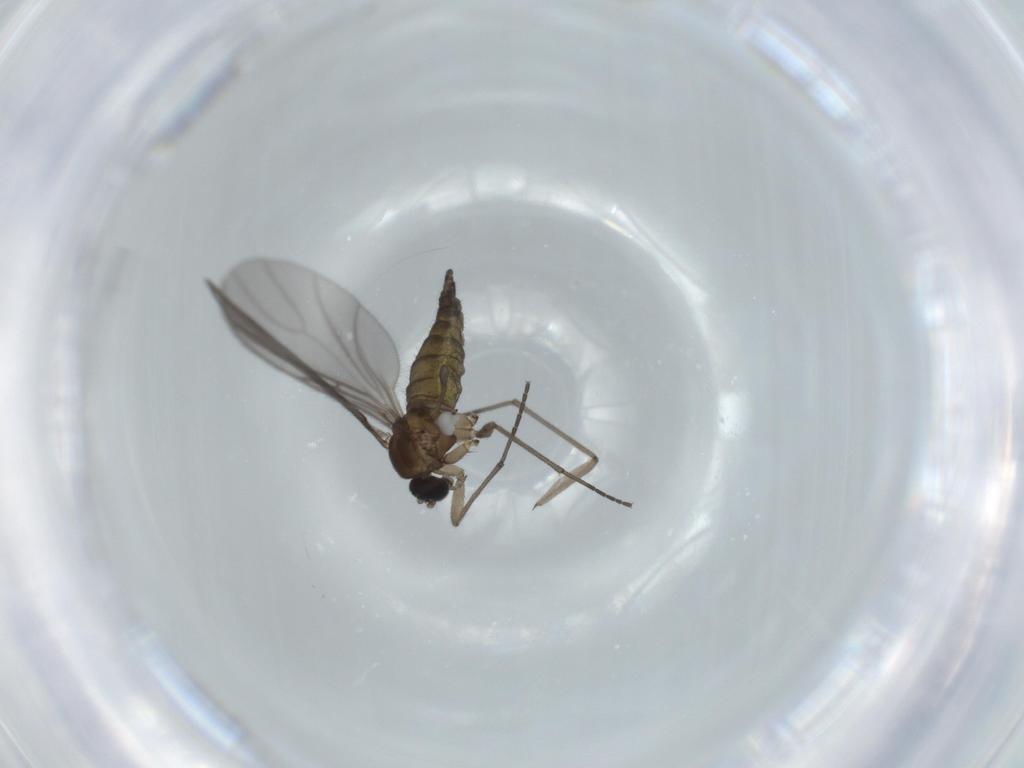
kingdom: Animalia
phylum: Arthropoda
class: Insecta
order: Diptera
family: Sciaridae
